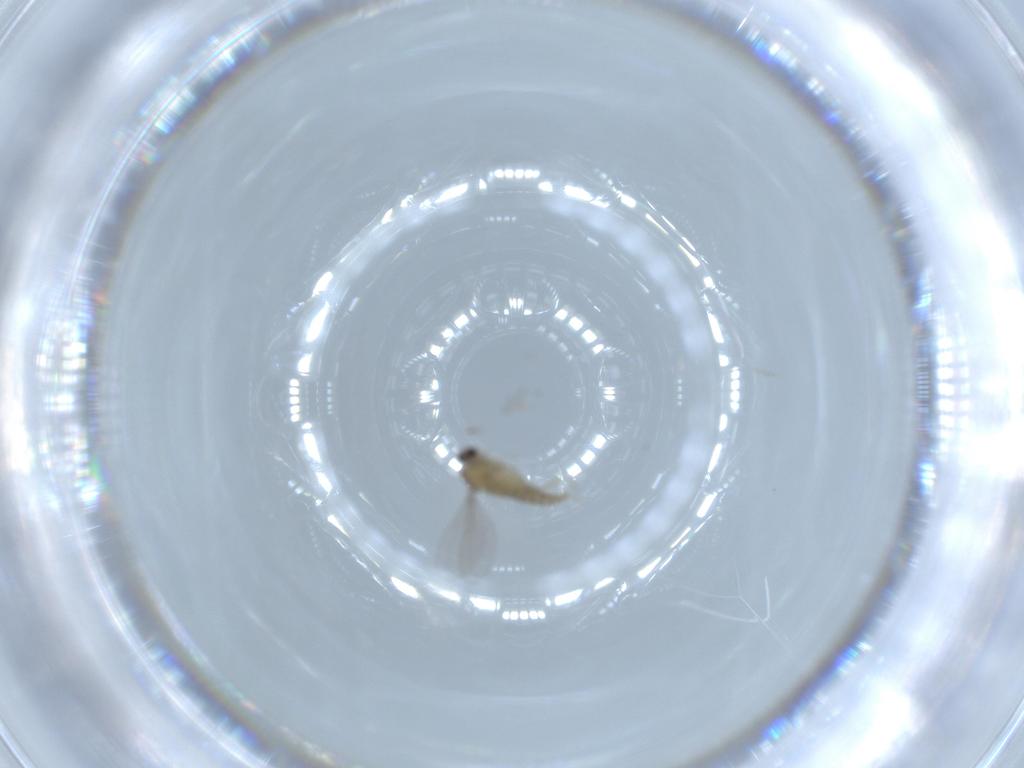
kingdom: Animalia
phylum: Arthropoda
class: Insecta
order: Diptera
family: Cecidomyiidae
